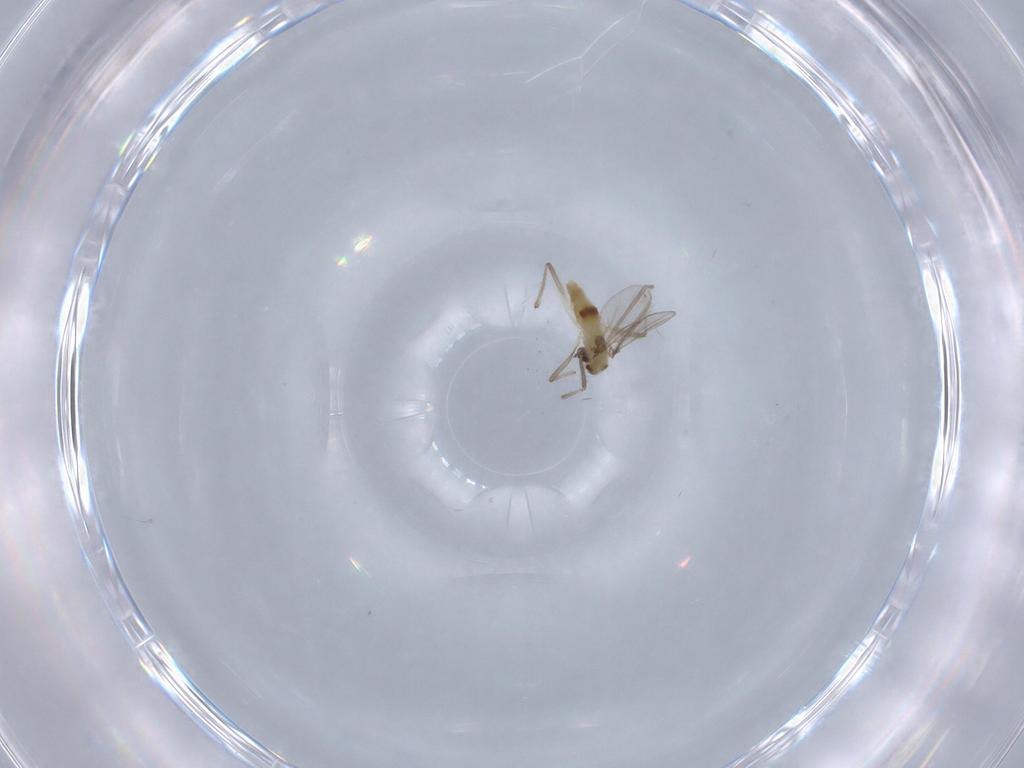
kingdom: Animalia
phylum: Arthropoda
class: Insecta
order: Diptera
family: Chironomidae
